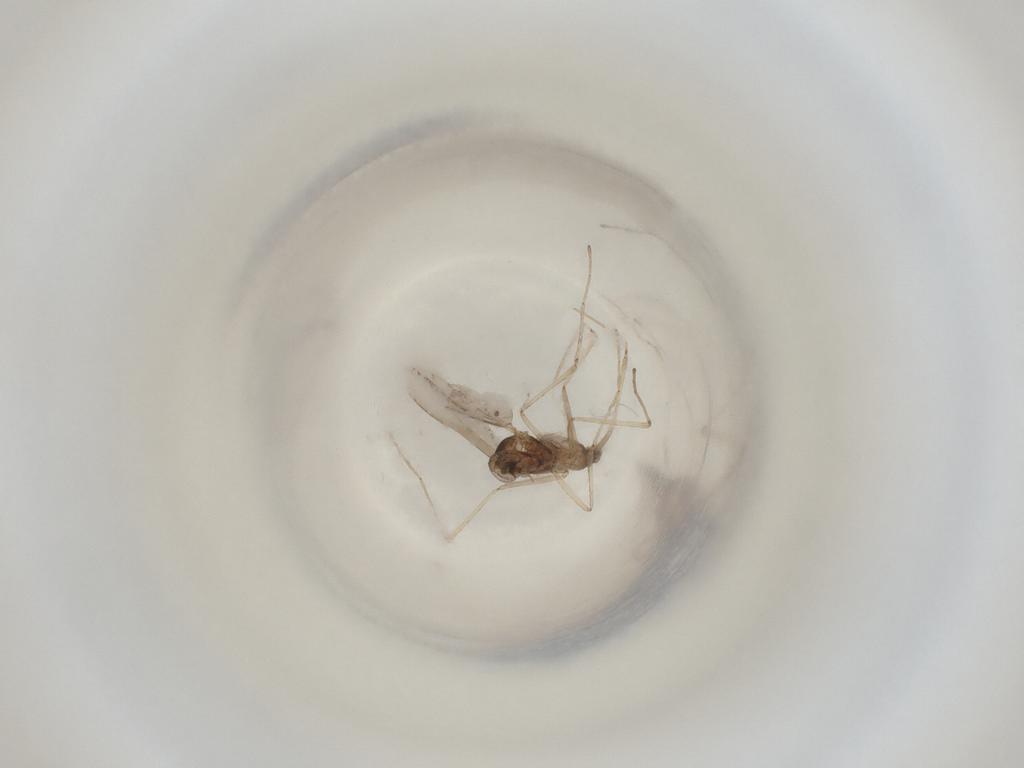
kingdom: Animalia
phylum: Arthropoda
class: Insecta
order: Diptera
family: Cecidomyiidae
